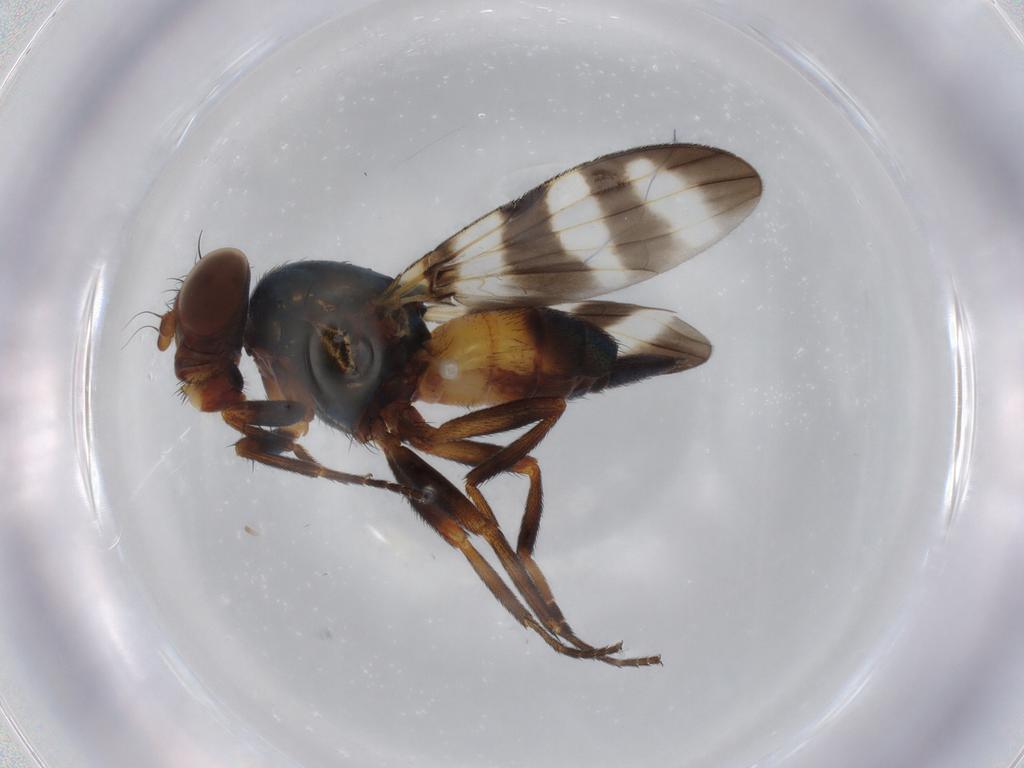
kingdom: Animalia
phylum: Arthropoda
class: Insecta
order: Diptera
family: Ulidiidae
